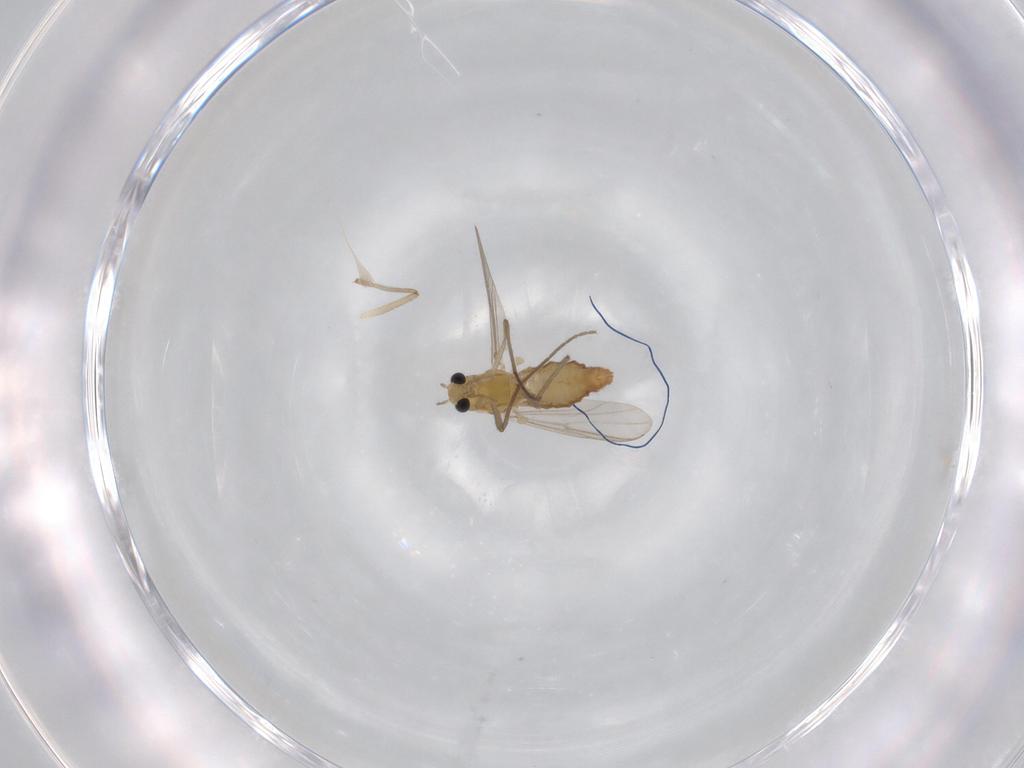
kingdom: Animalia
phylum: Arthropoda
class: Insecta
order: Diptera
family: Chironomidae
